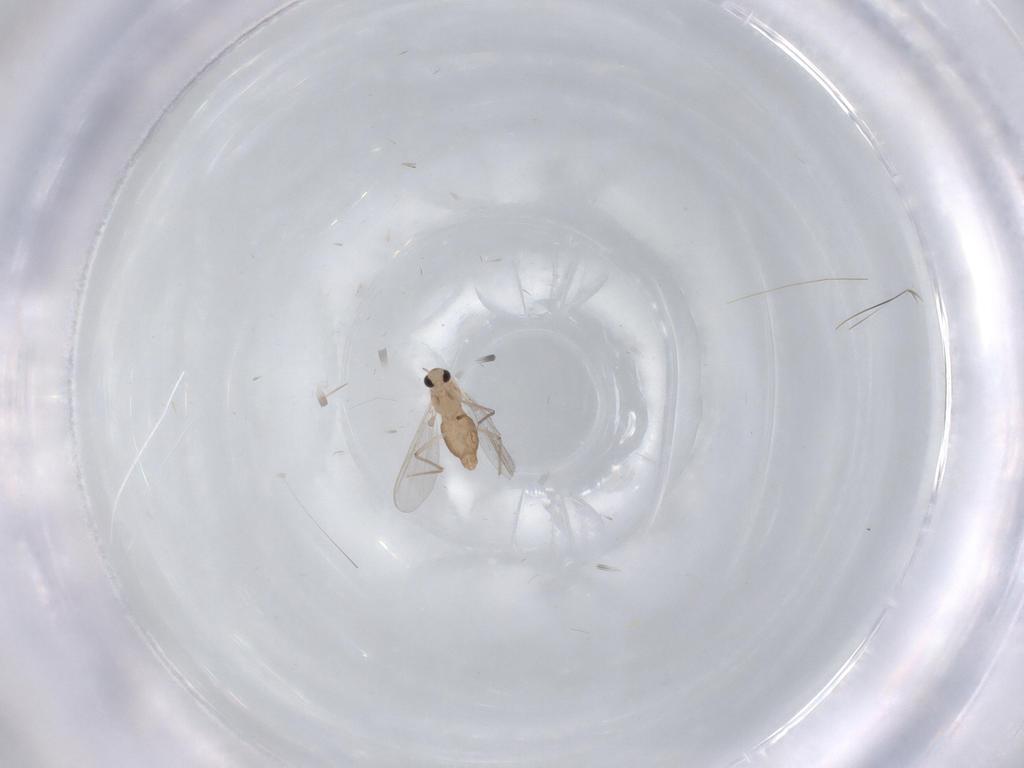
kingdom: Animalia
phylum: Arthropoda
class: Insecta
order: Diptera
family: Chironomidae
